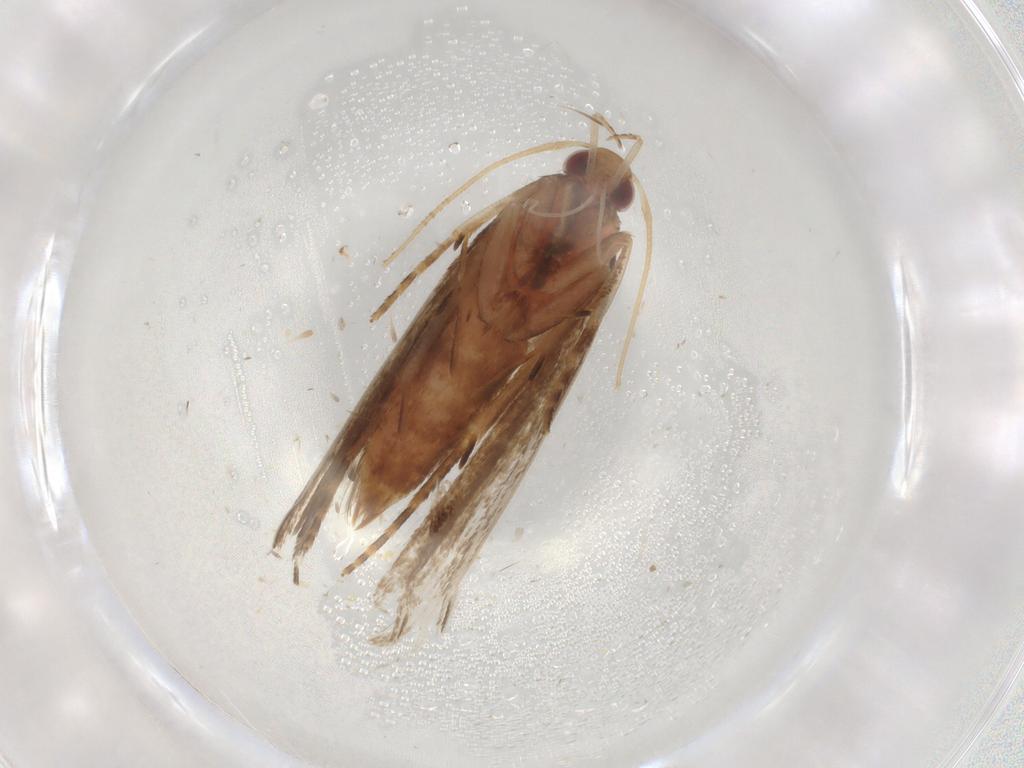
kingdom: Animalia
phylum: Arthropoda
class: Insecta
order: Lepidoptera
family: Gelechiidae
